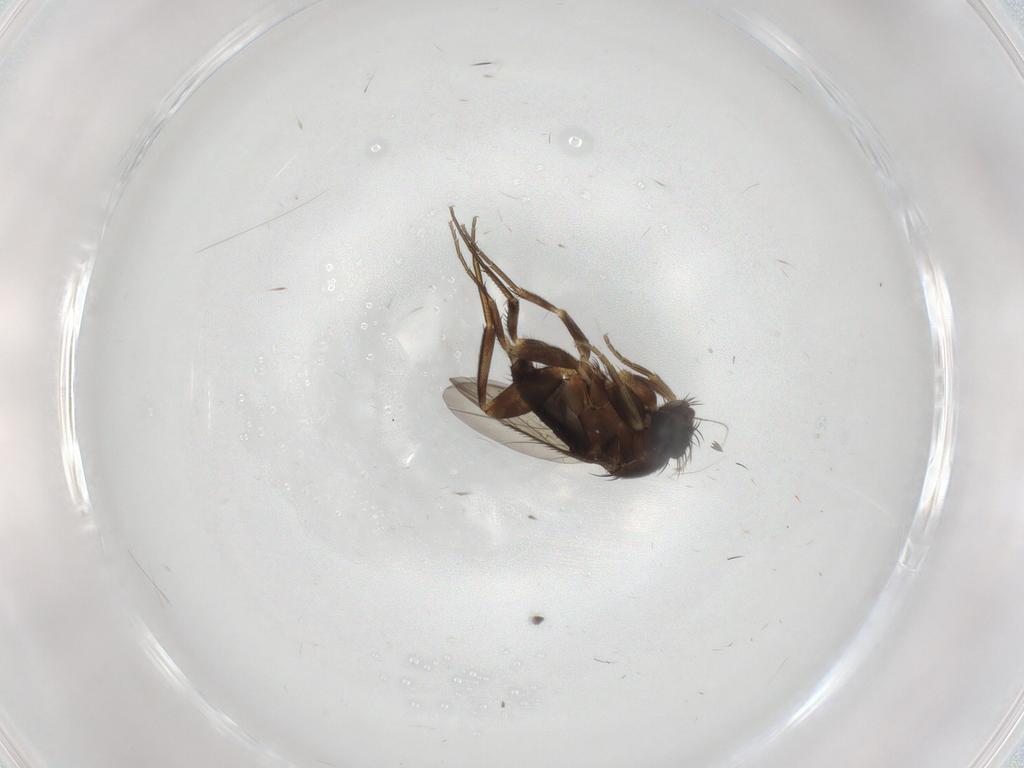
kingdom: Animalia
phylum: Arthropoda
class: Insecta
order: Diptera
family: Phoridae
